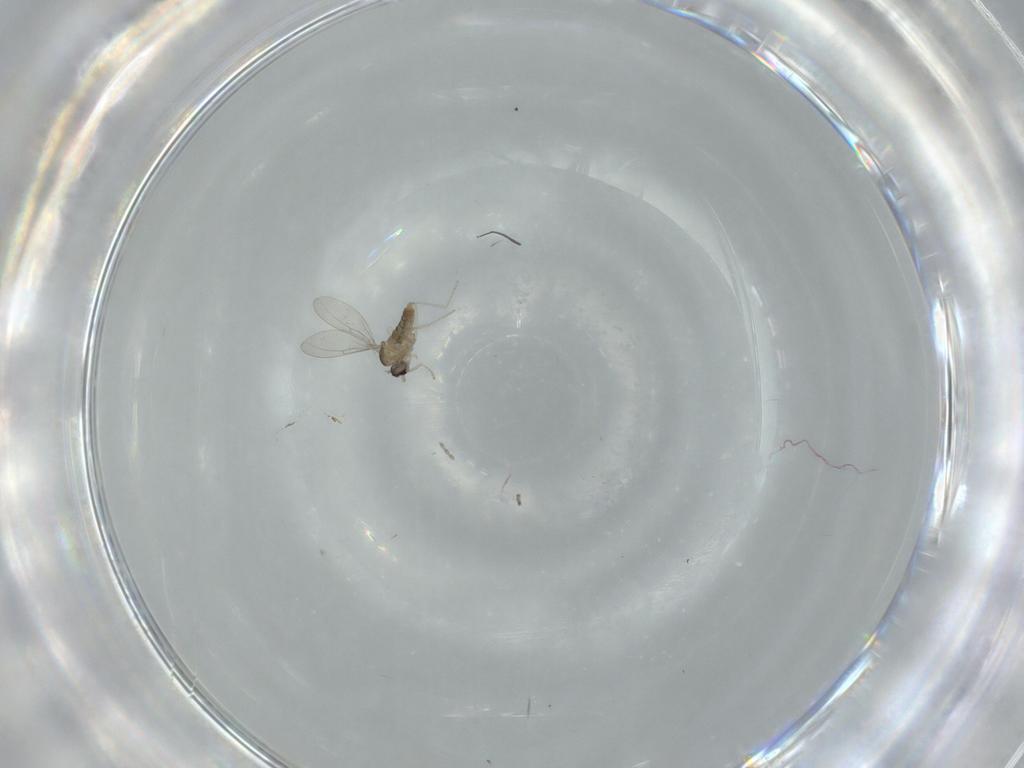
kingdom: Animalia
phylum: Arthropoda
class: Insecta
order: Diptera
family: Cecidomyiidae
